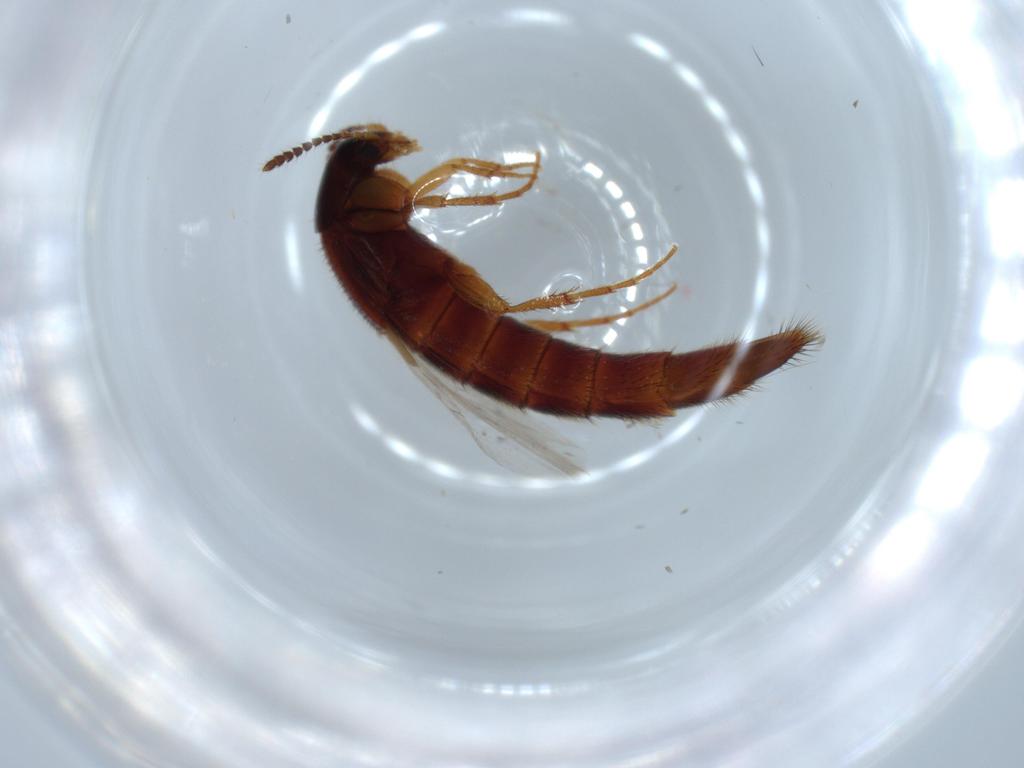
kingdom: Animalia
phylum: Arthropoda
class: Insecta
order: Coleoptera
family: Staphylinidae
